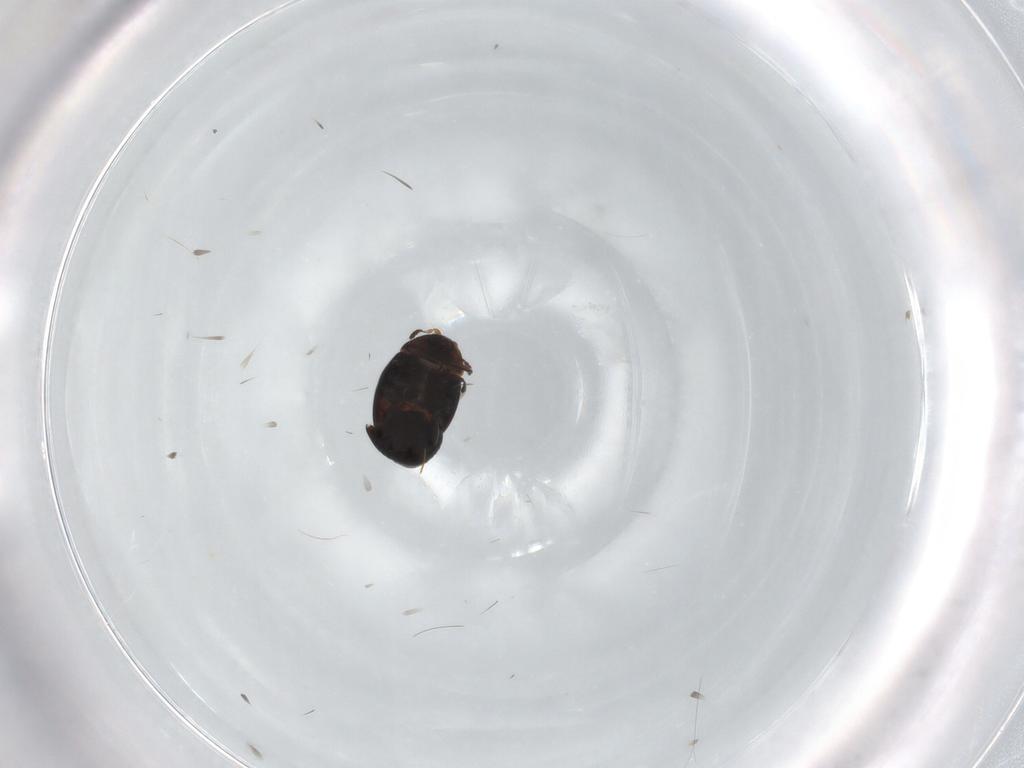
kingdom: Animalia
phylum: Arthropoda
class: Insecta
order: Coleoptera
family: Corylophidae
